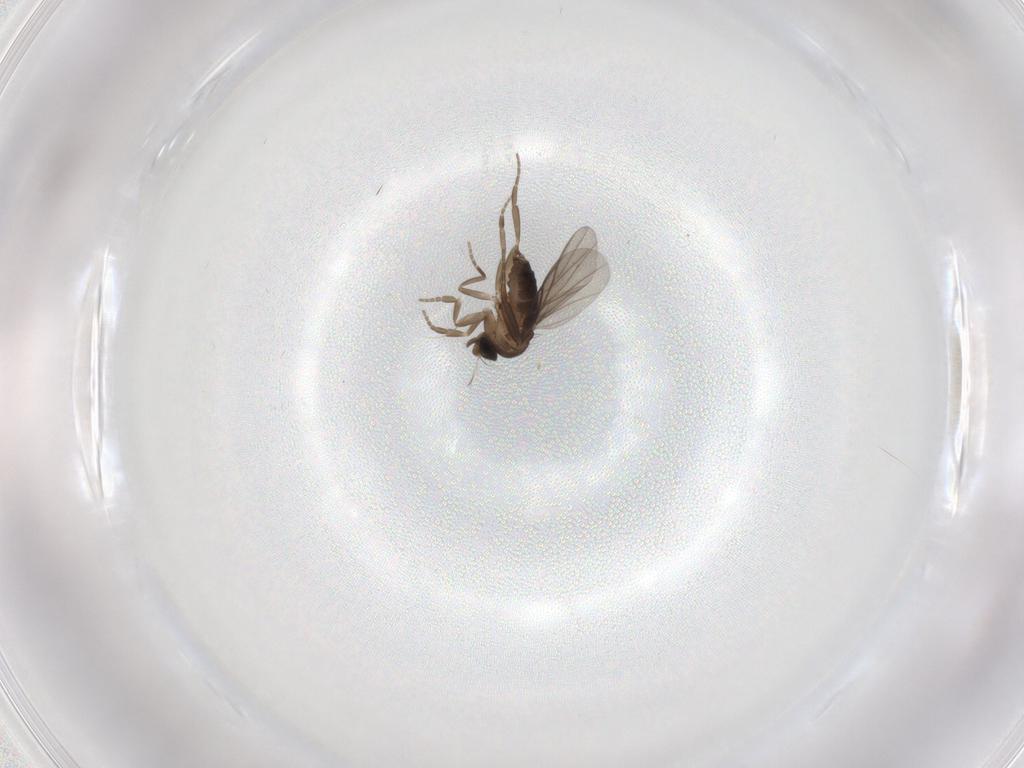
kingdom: Animalia
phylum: Arthropoda
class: Insecta
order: Diptera
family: Phoridae
